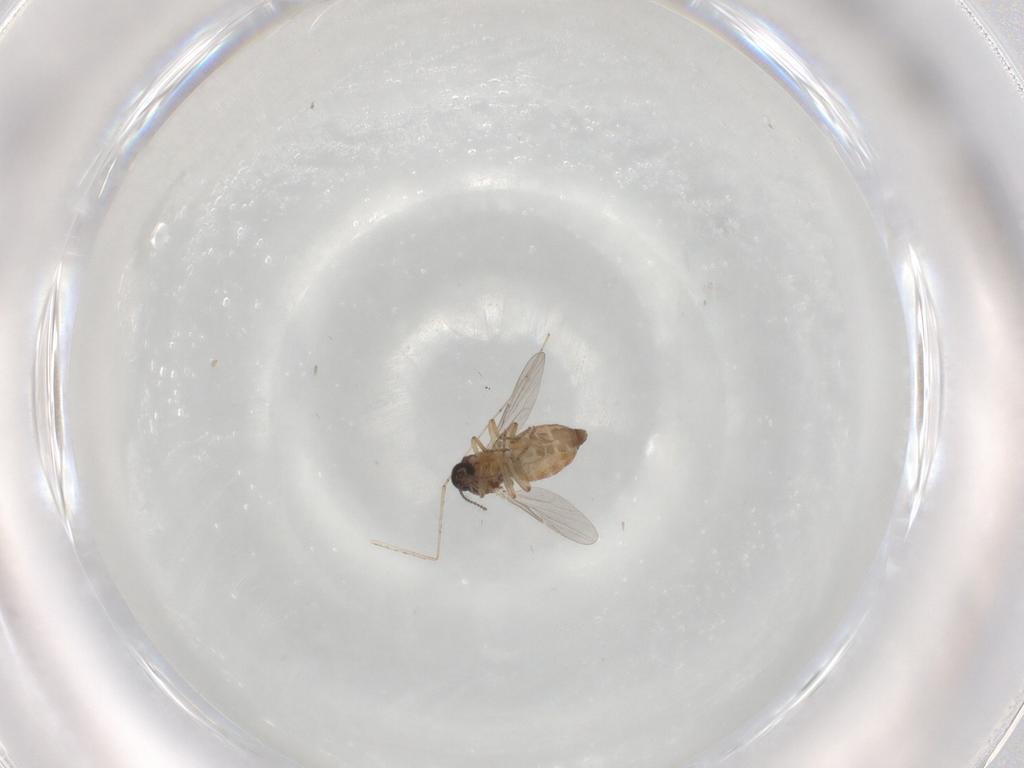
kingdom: Animalia
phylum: Arthropoda
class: Insecta
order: Diptera
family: Cecidomyiidae
